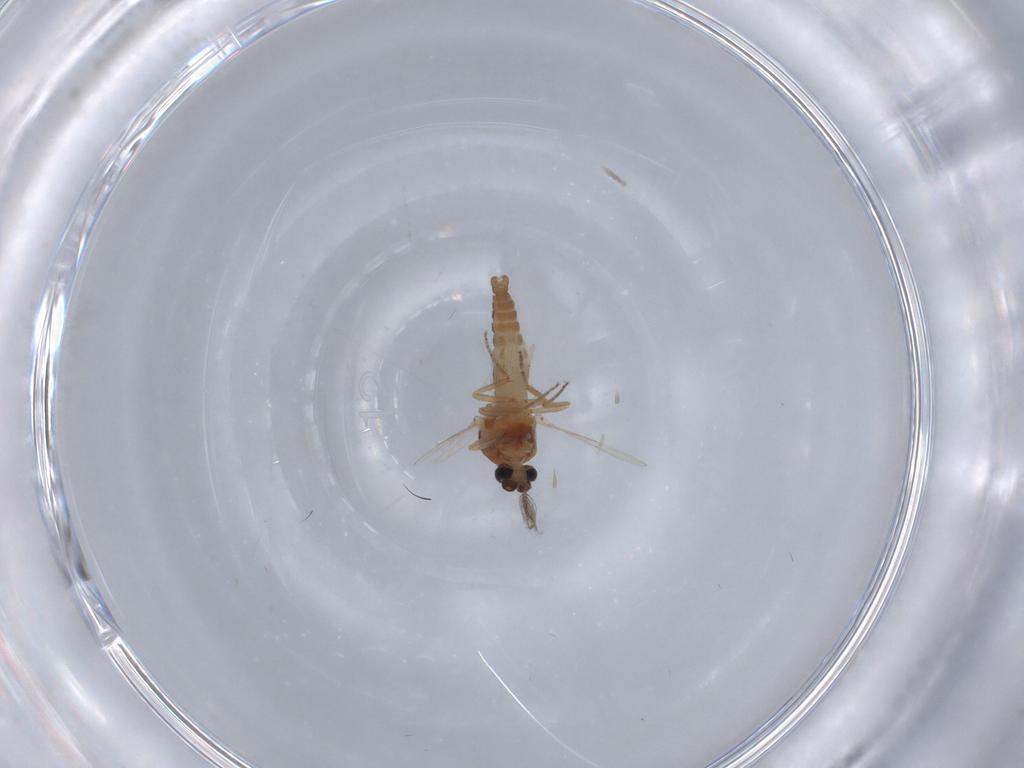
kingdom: Animalia
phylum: Arthropoda
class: Insecta
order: Diptera
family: Ceratopogonidae
